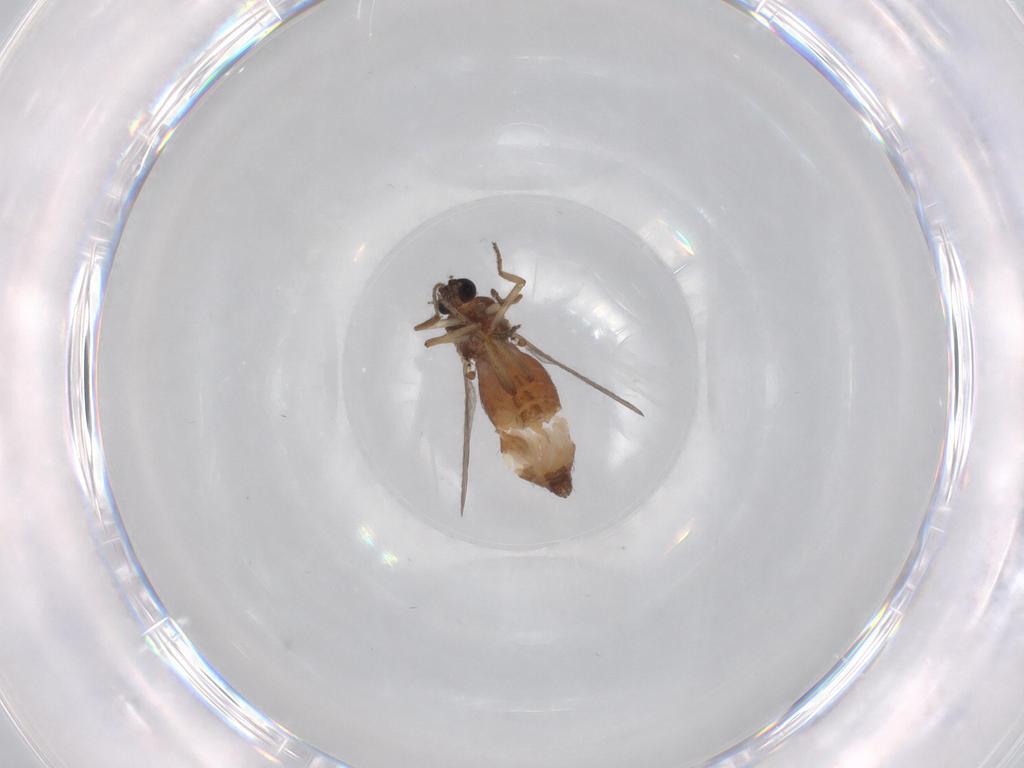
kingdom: Animalia
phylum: Arthropoda
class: Insecta
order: Diptera
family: Ceratopogonidae
